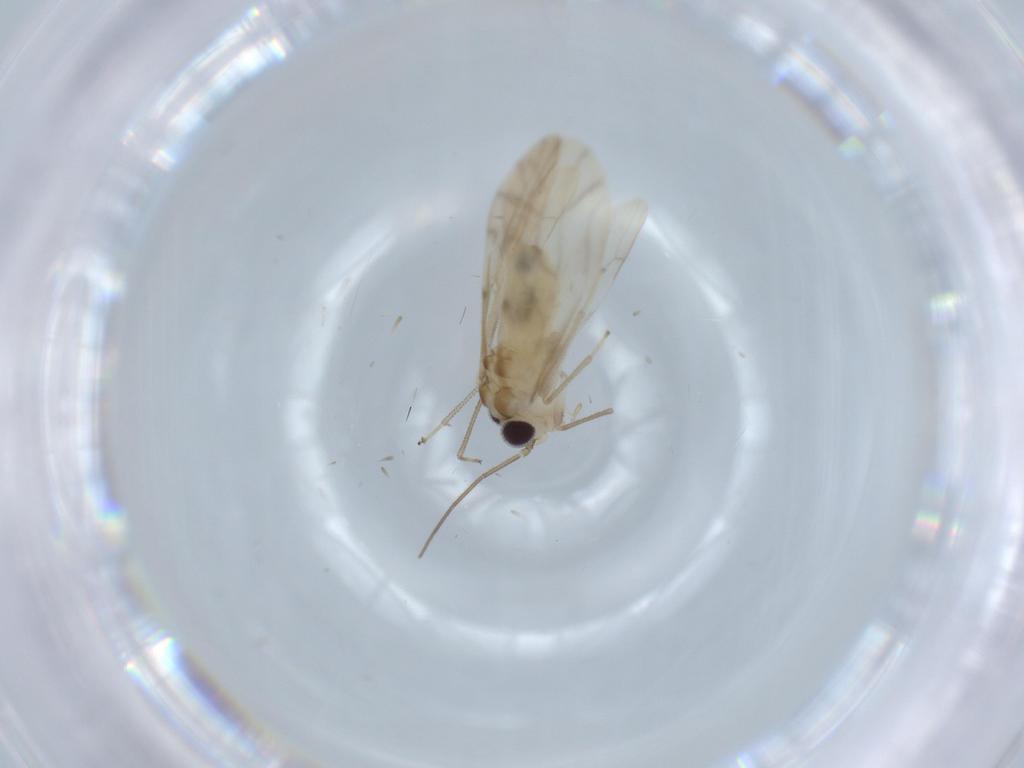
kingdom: Animalia
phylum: Arthropoda
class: Insecta
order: Psocodea
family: Caeciliusidae
